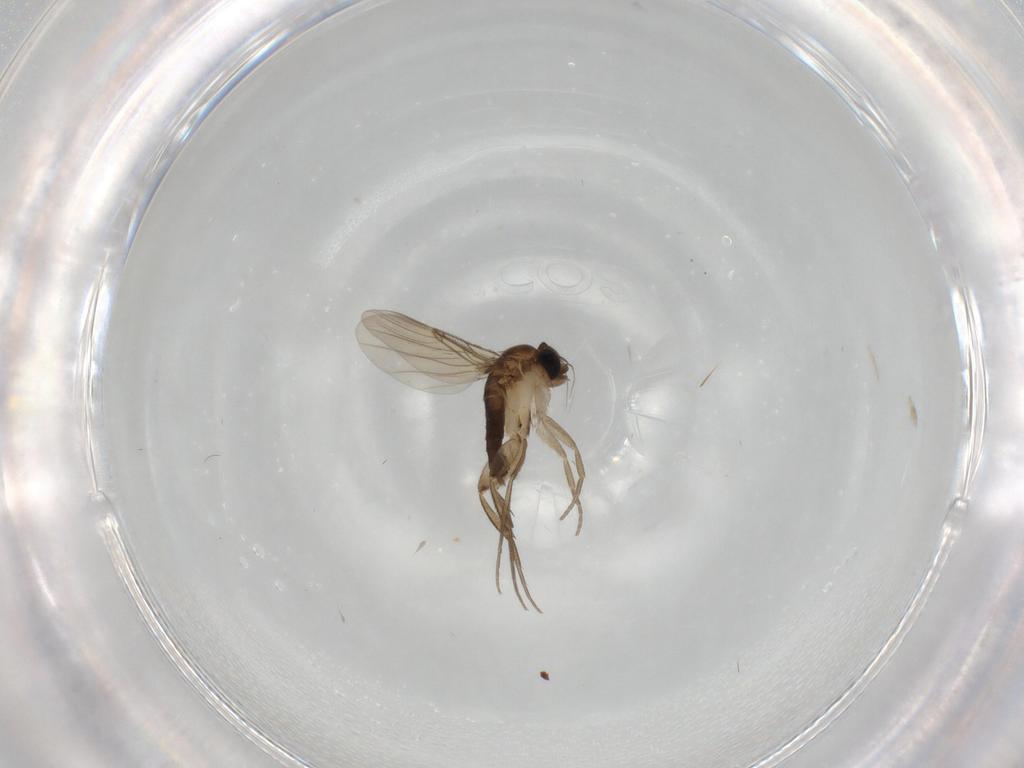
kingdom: Animalia
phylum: Arthropoda
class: Insecta
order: Diptera
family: Phoridae
